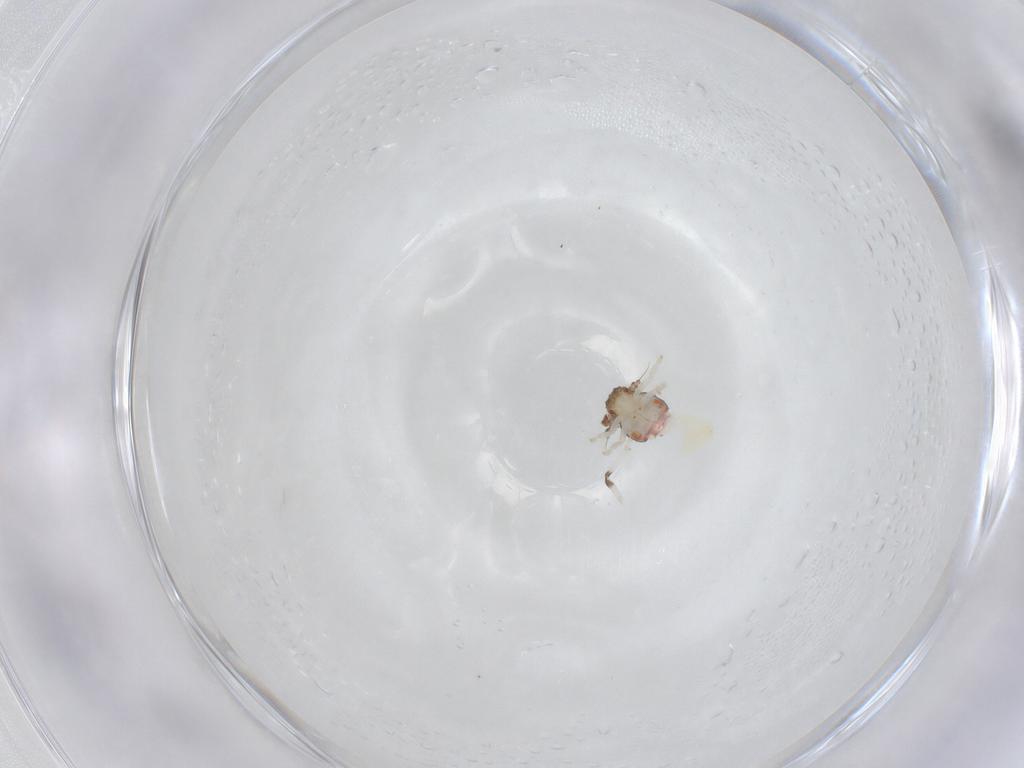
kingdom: Animalia
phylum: Arthropoda
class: Insecta
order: Hemiptera
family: Nogodinidae
